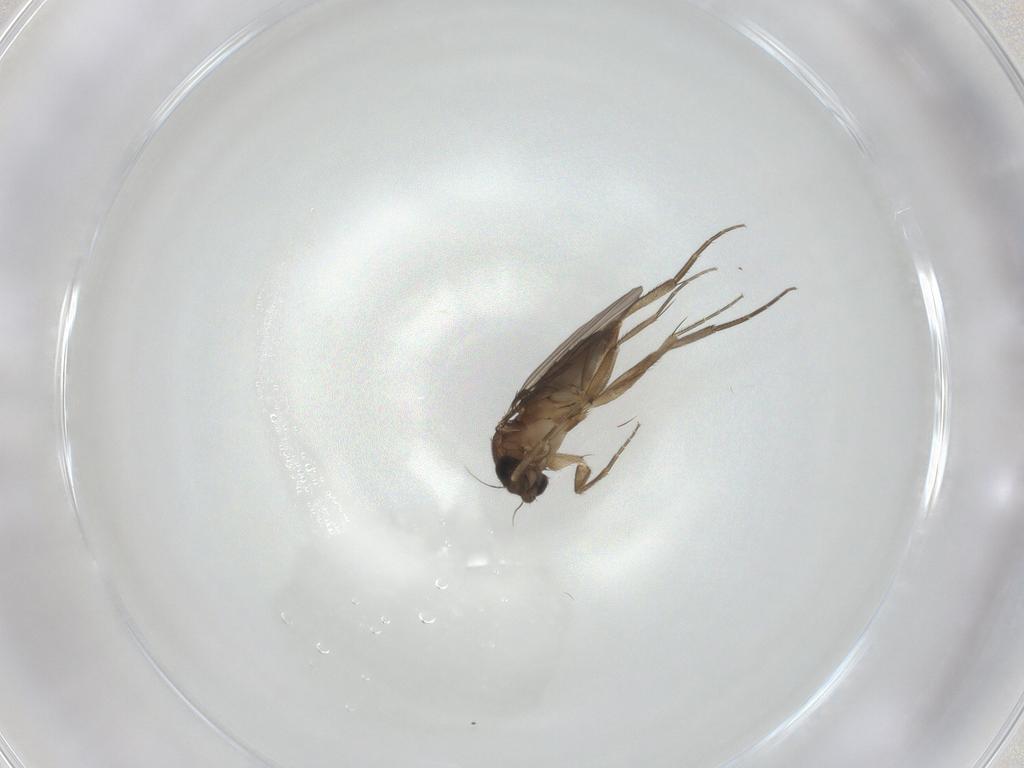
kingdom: Animalia
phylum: Arthropoda
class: Insecta
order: Diptera
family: Phoridae
